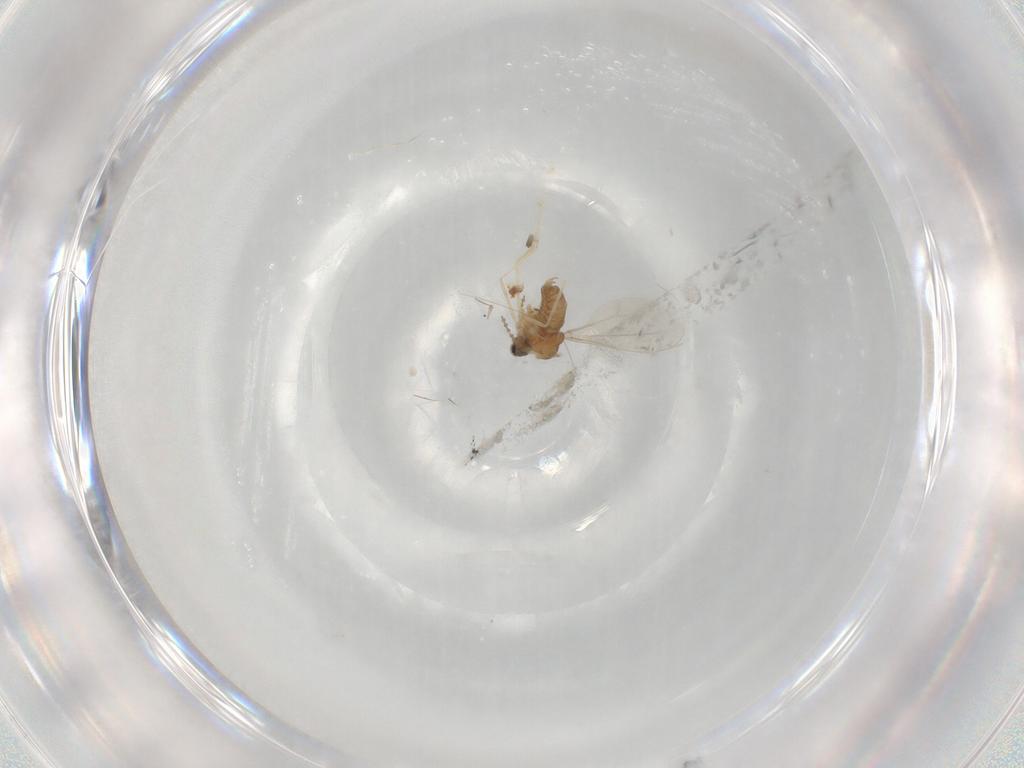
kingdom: Animalia
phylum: Arthropoda
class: Insecta
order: Diptera
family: Cecidomyiidae
